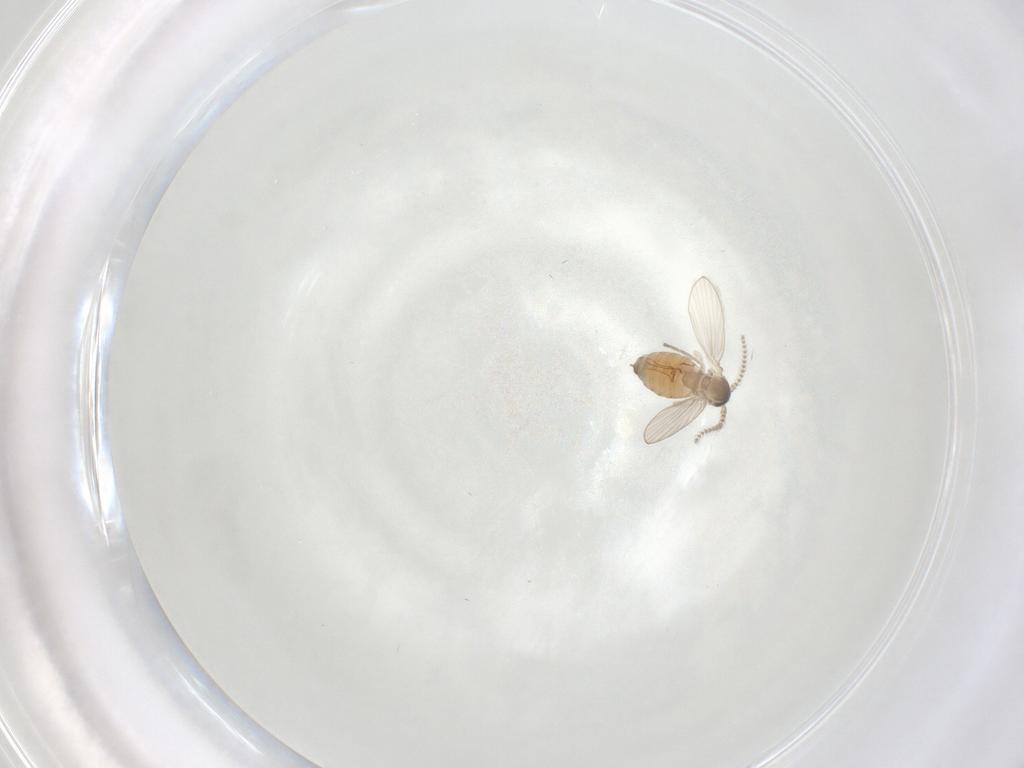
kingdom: Animalia
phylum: Arthropoda
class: Insecta
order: Diptera
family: Psychodidae
